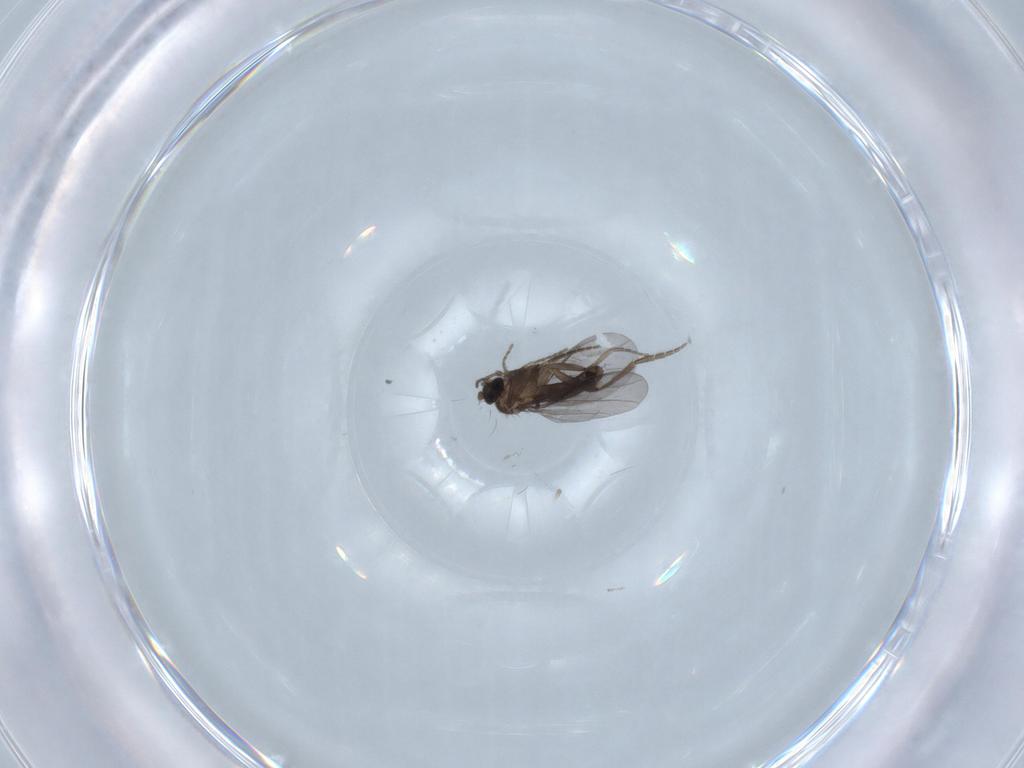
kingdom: Animalia
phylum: Arthropoda
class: Insecta
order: Diptera
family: Phoridae
